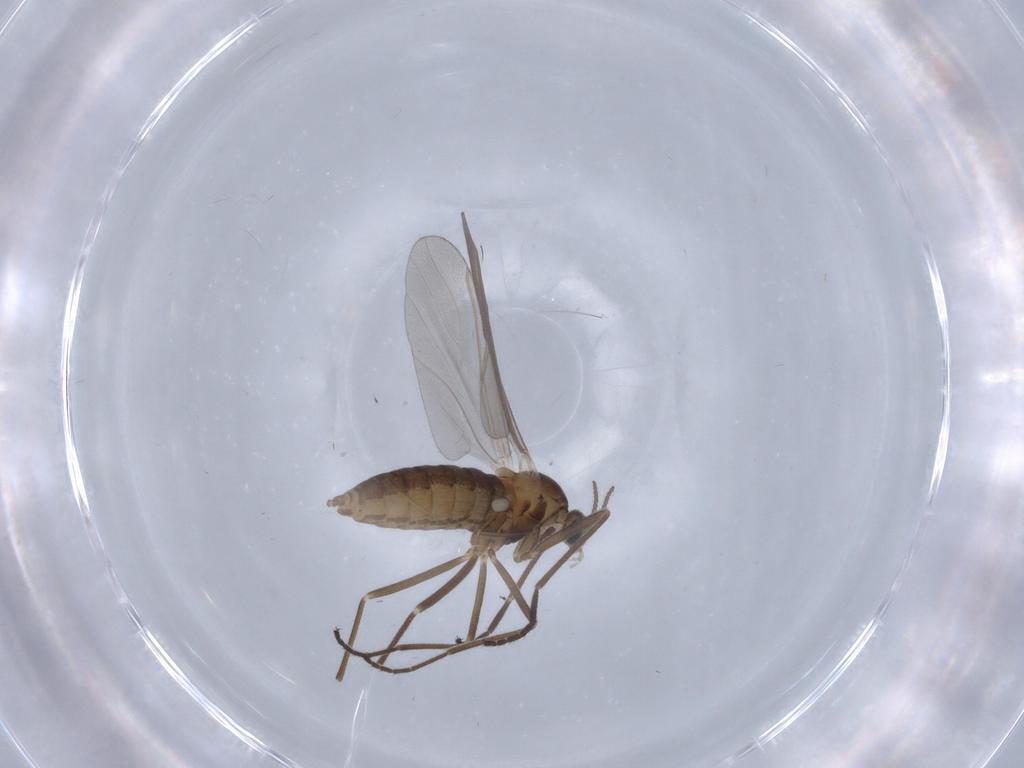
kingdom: Animalia
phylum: Arthropoda
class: Insecta
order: Diptera
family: Cecidomyiidae
